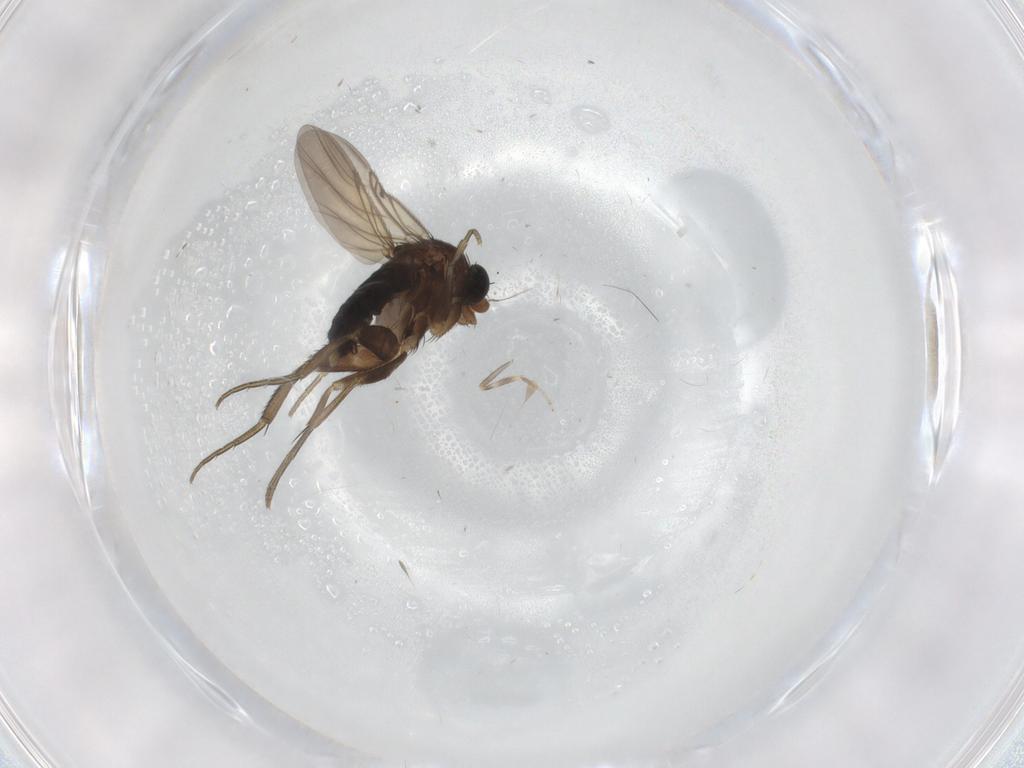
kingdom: Animalia
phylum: Arthropoda
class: Insecta
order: Diptera
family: Phoridae
